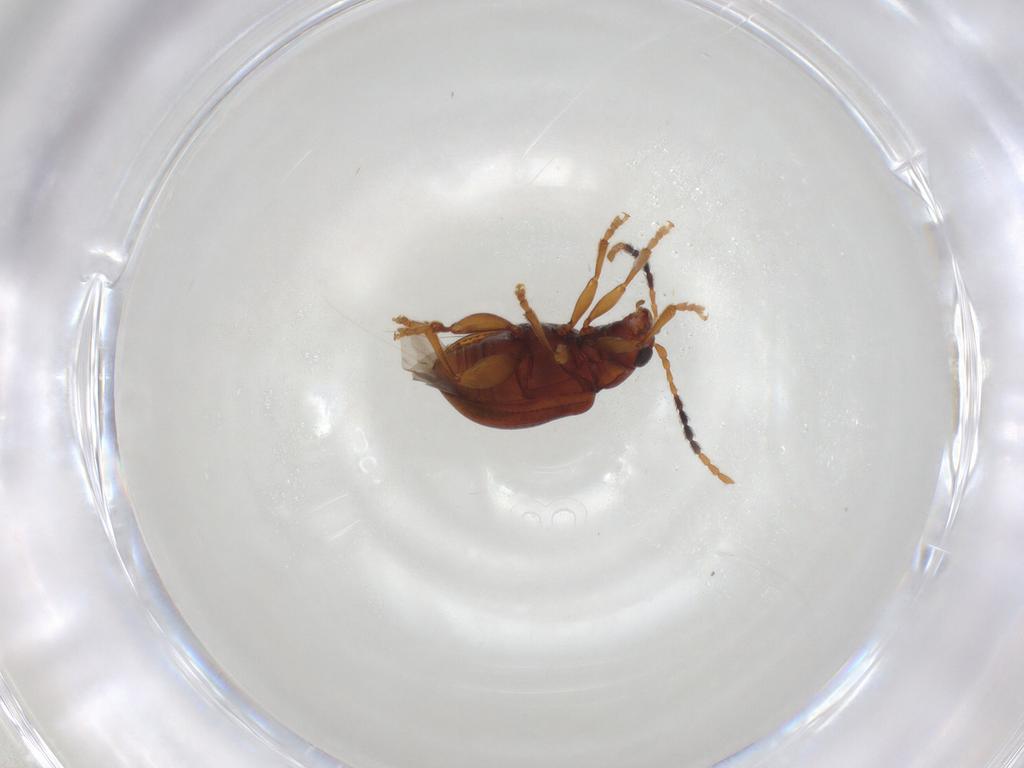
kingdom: Animalia
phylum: Arthropoda
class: Insecta
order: Coleoptera
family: Chrysomelidae
